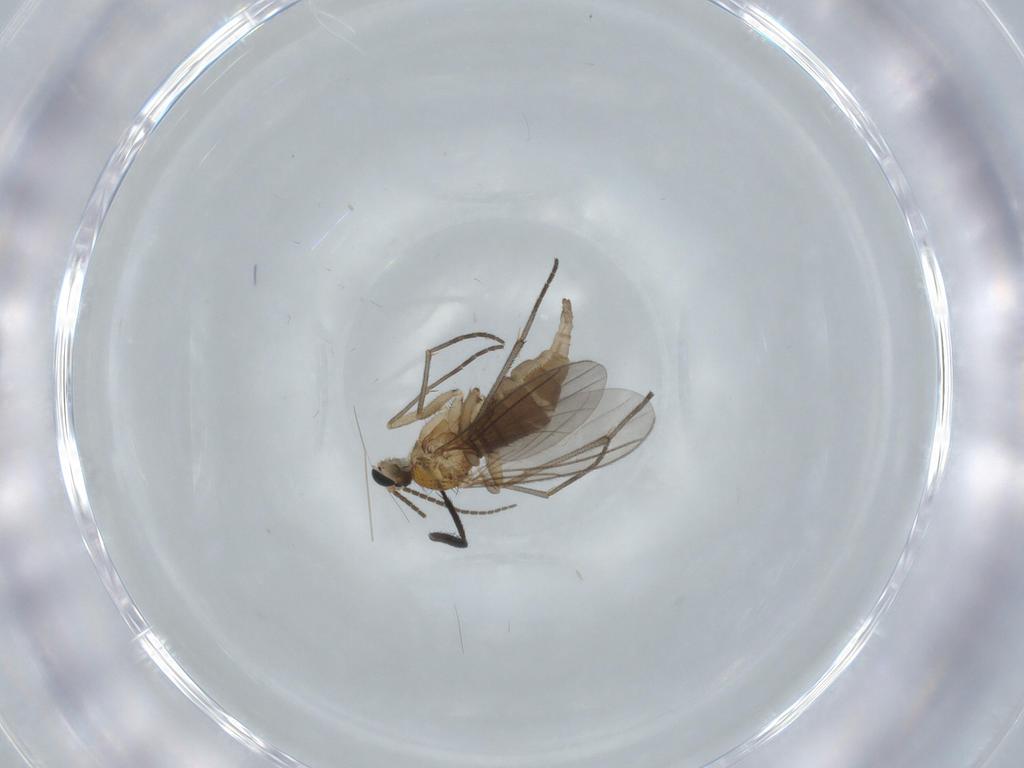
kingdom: Animalia
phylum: Arthropoda
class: Insecta
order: Diptera
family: Sciaridae
